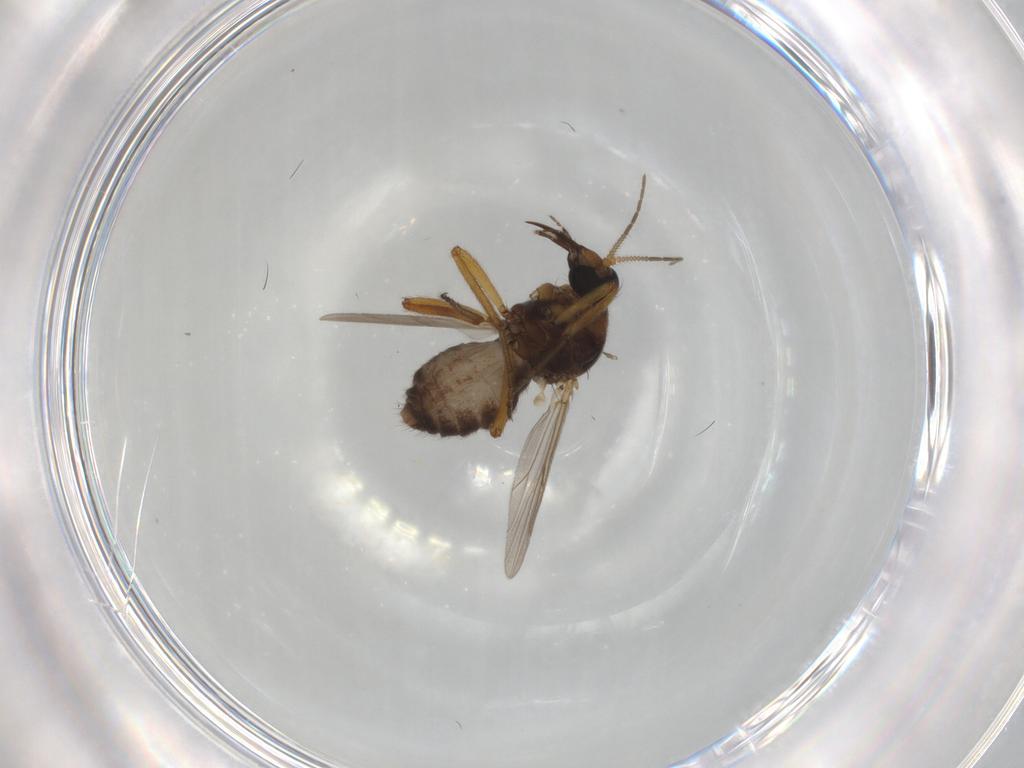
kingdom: Animalia
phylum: Arthropoda
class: Insecta
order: Diptera
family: Ceratopogonidae
